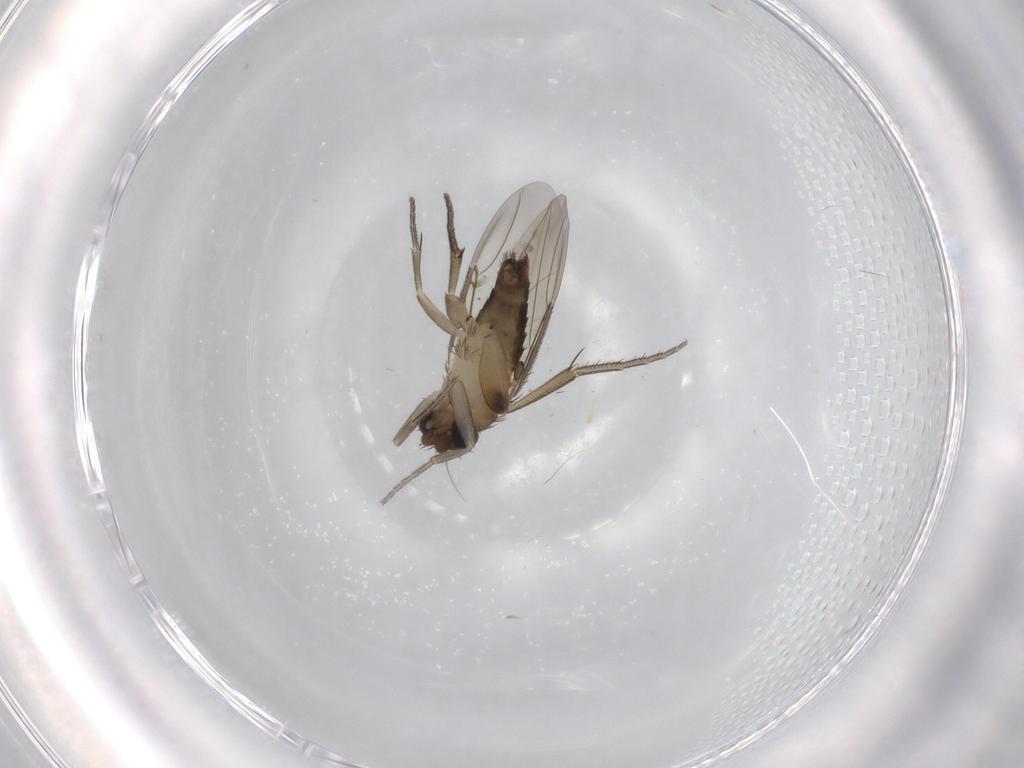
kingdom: Animalia
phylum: Arthropoda
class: Insecta
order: Diptera
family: Phoridae
